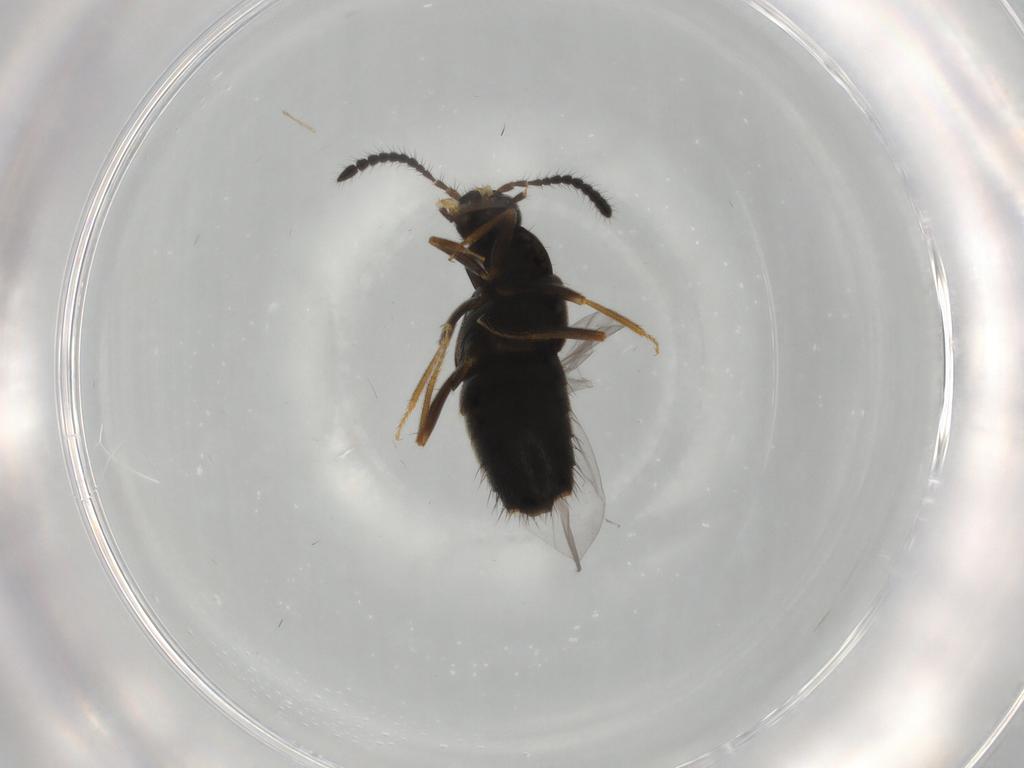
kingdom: Animalia
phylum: Arthropoda
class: Insecta
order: Coleoptera
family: Staphylinidae
